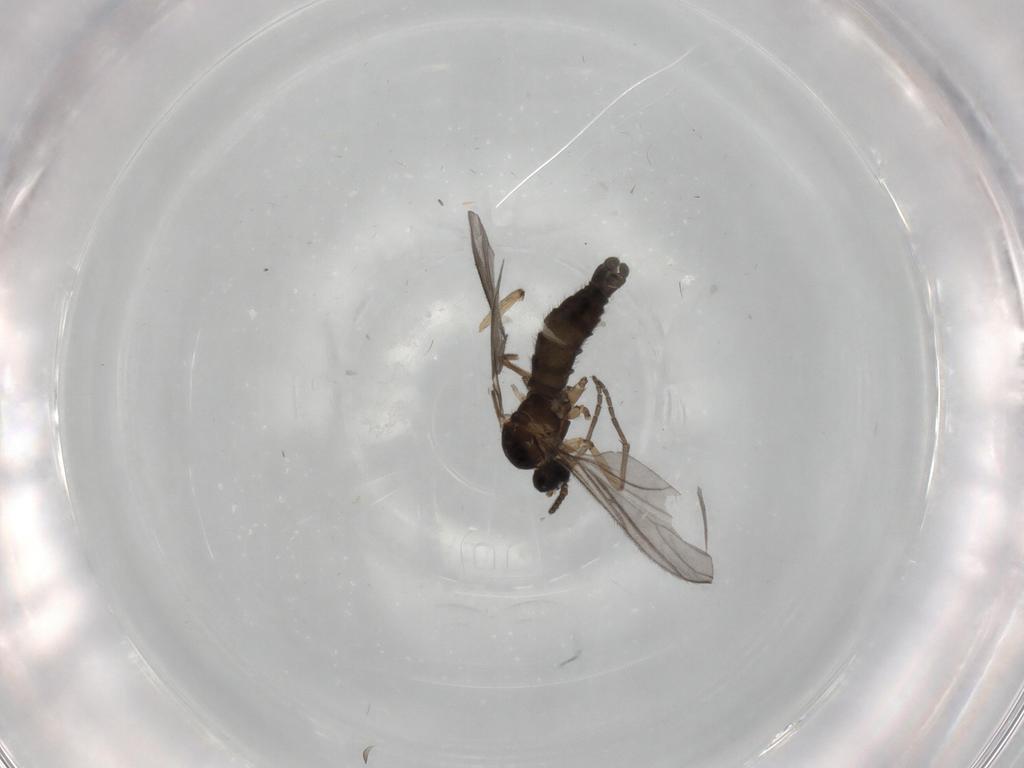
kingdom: Animalia
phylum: Arthropoda
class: Insecta
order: Diptera
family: Sciaridae
